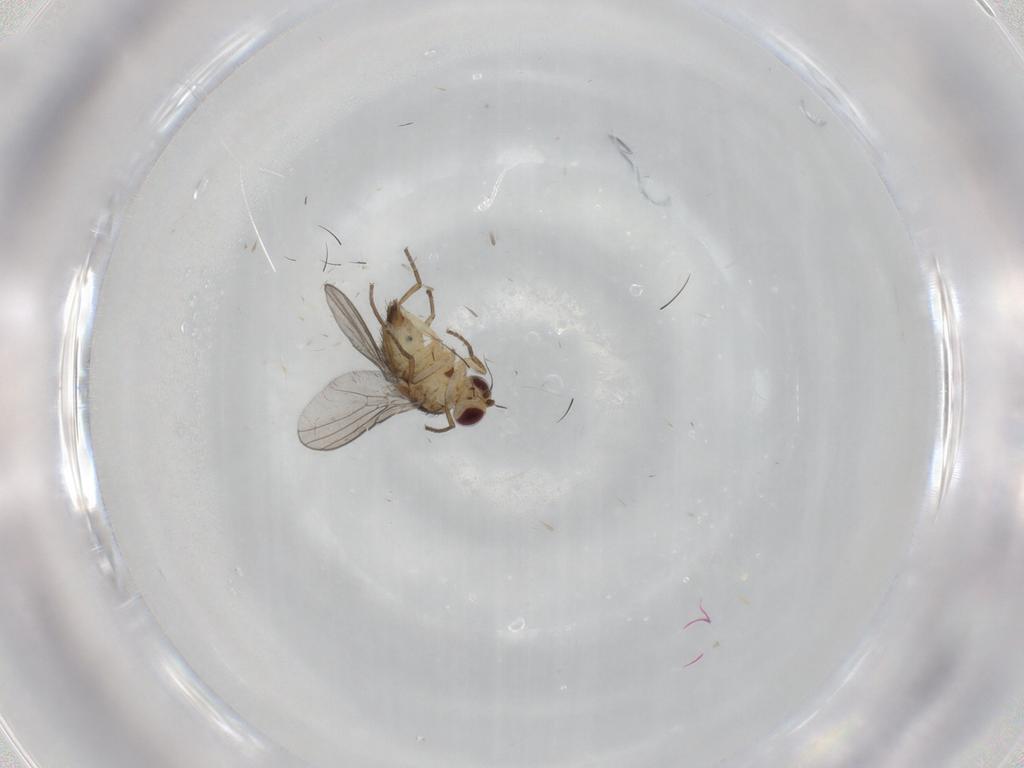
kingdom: Animalia
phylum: Arthropoda
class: Insecta
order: Diptera
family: Agromyzidae
